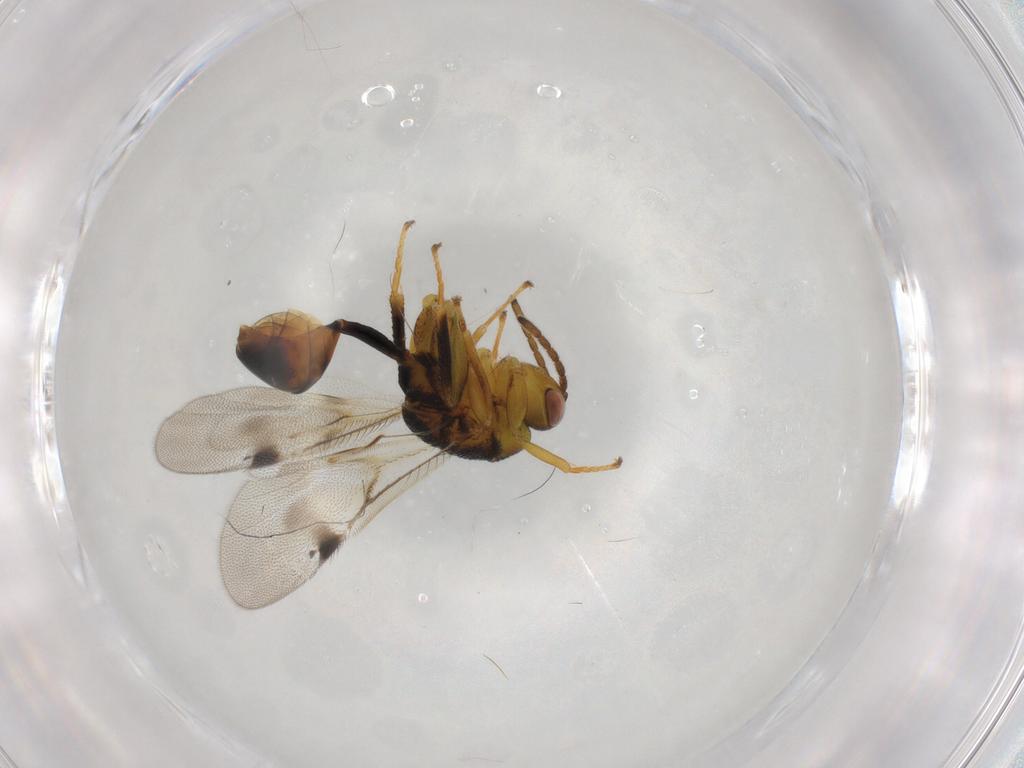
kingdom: Animalia
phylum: Arthropoda
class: Insecta
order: Hymenoptera
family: Eurytomidae
